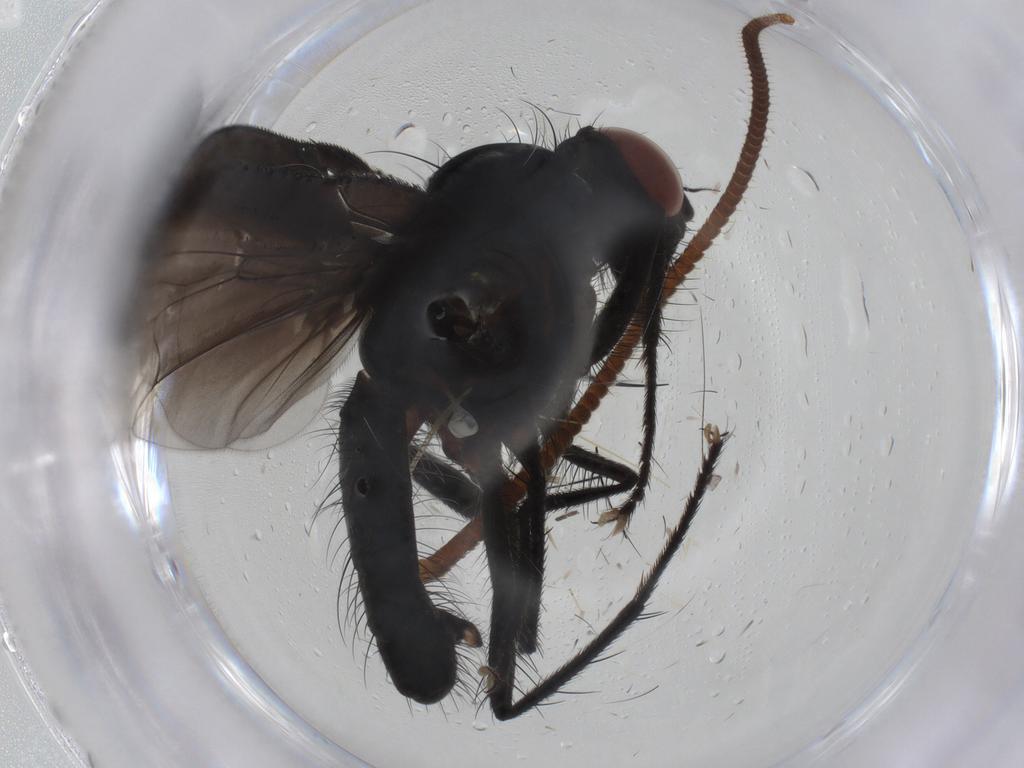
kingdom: Animalia
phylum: Arthropoda
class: Insecta
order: Diptera
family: Anthomyiidae
